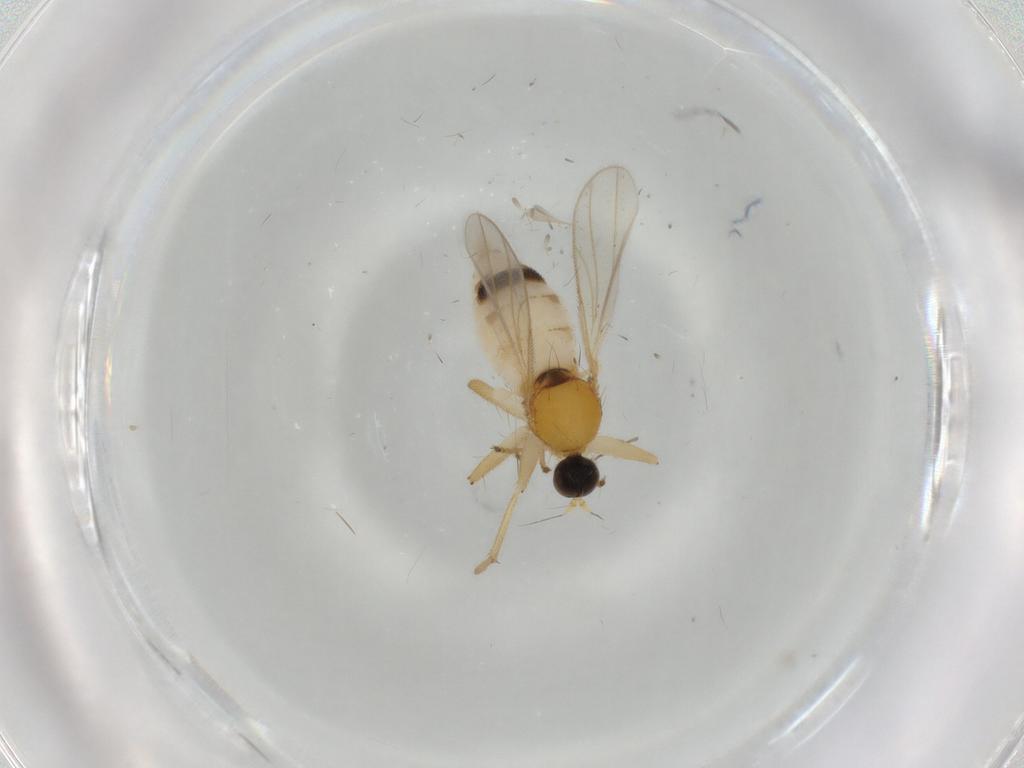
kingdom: Animalia
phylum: Arthropoda
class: Insecta
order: Diptera
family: Hybotidae
